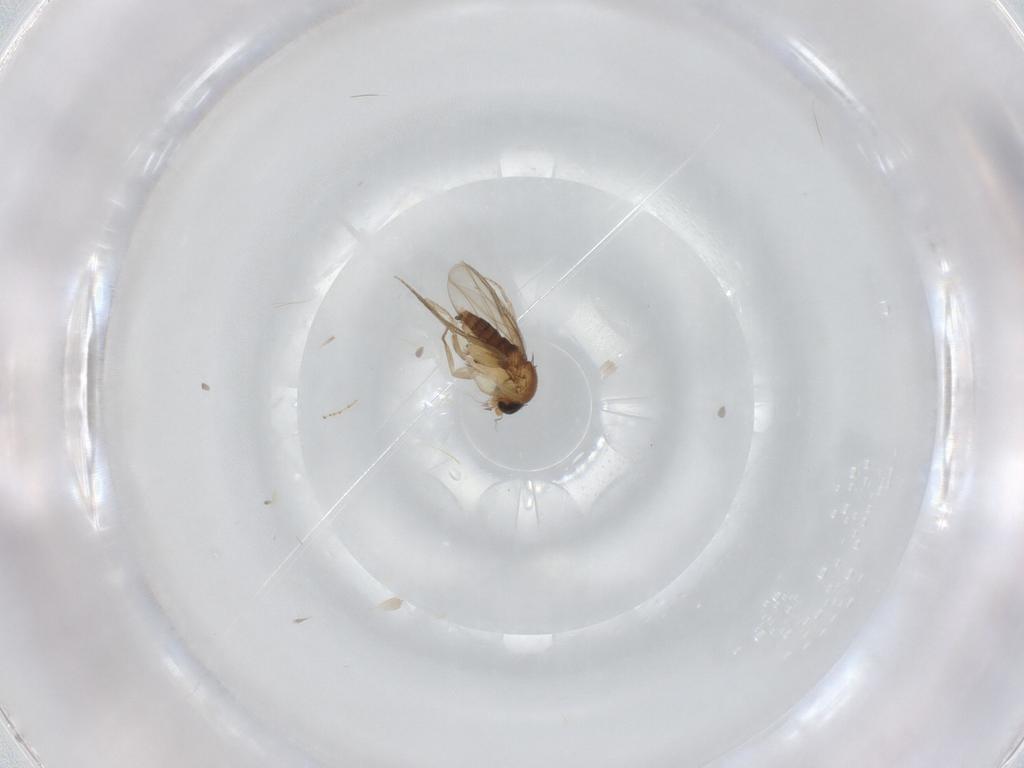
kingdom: Animalia
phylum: Arthropoda
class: Insecta
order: Diptera
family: Phoridae
